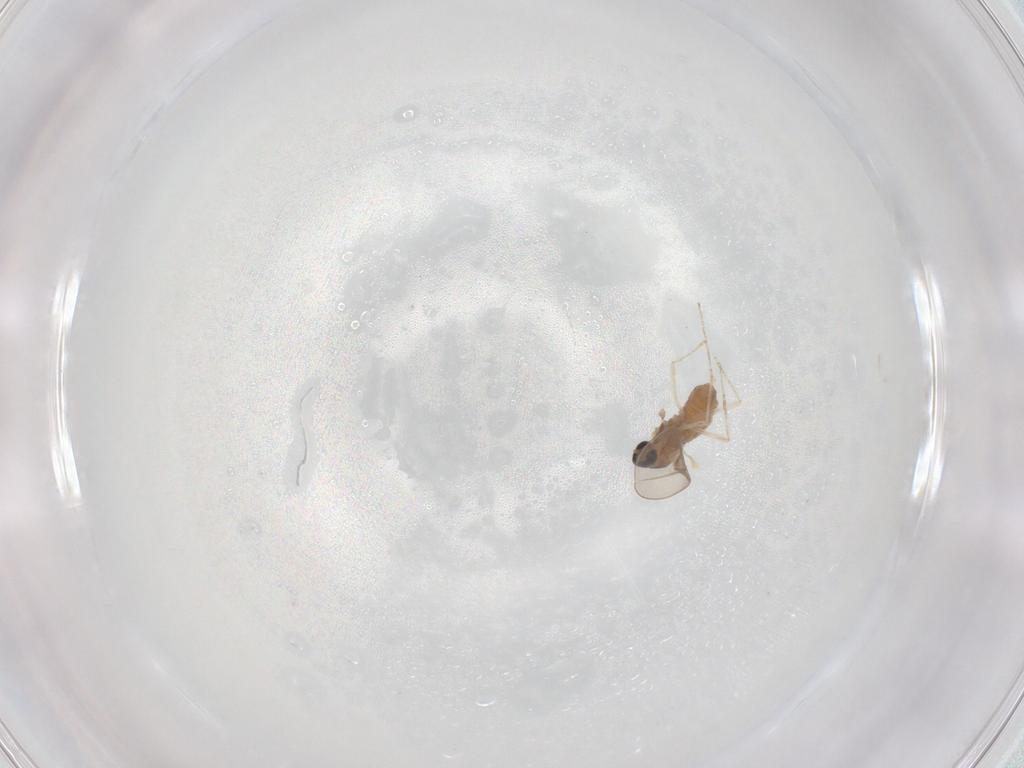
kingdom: Animalia
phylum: Arthropoda
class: Insecta
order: Diptera
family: Cecidomyiidae
